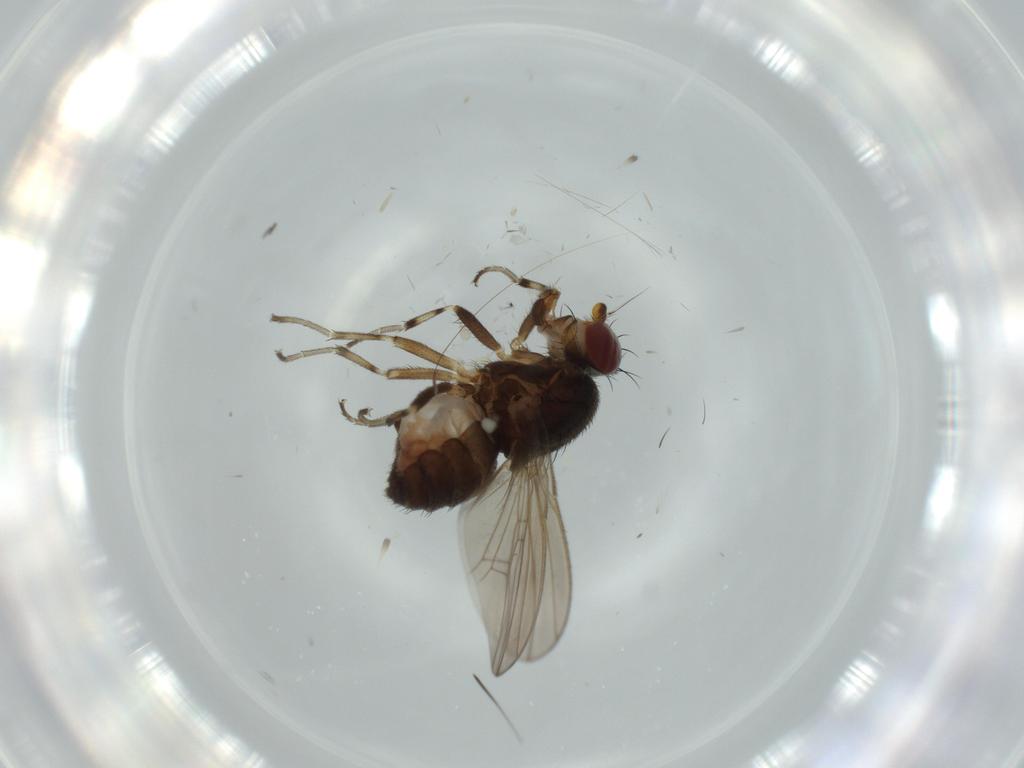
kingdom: Animalia
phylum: Arthropoda
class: Insecta
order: Diptera
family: Heleomyzidae
